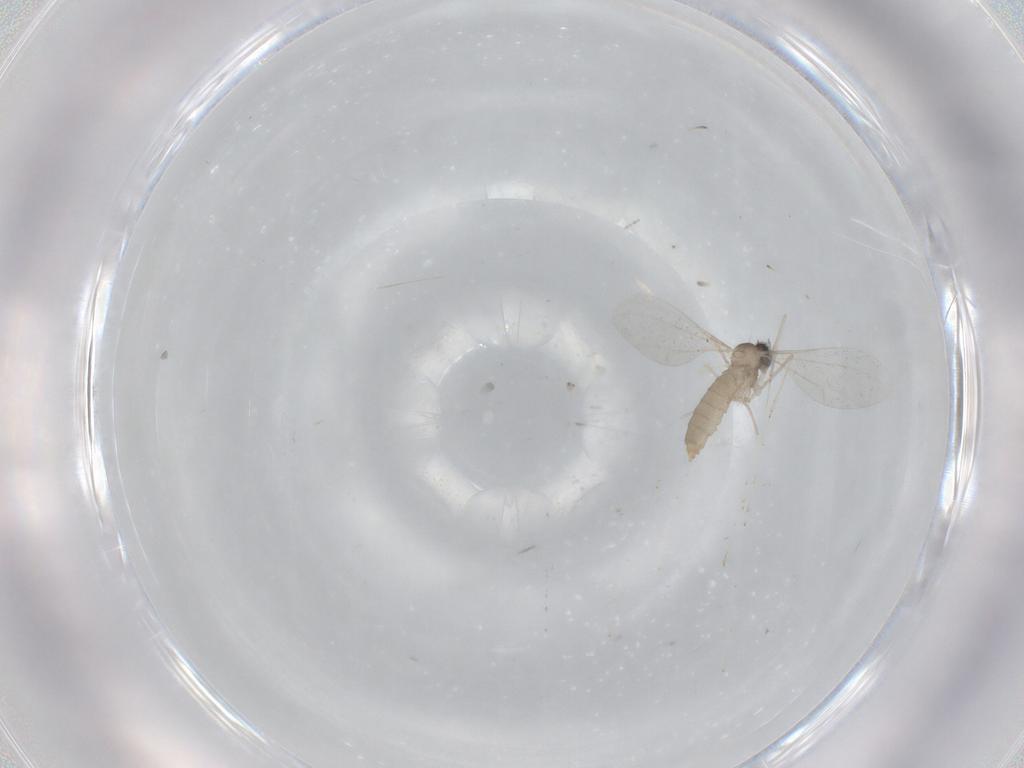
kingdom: Animalia
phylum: Arthropoda
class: Insecta
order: Diptera
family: Cecidomyiidae
